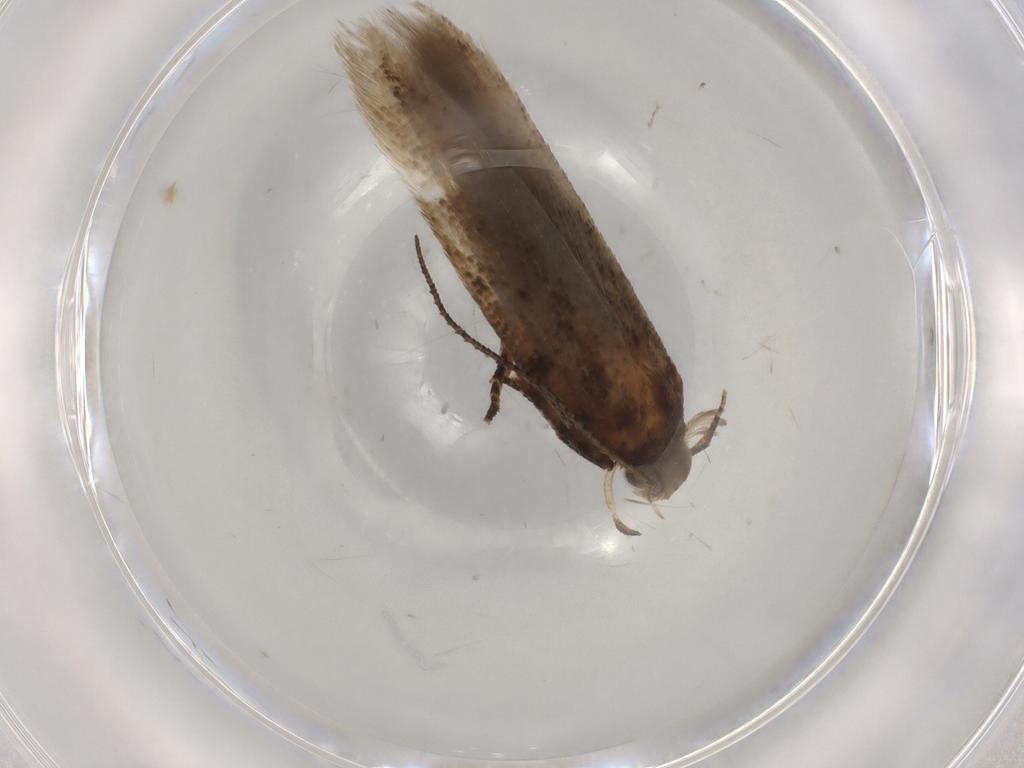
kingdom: Animalia
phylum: Arthropoda
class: Insecta
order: Lepidoptera
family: Gelechiidae
